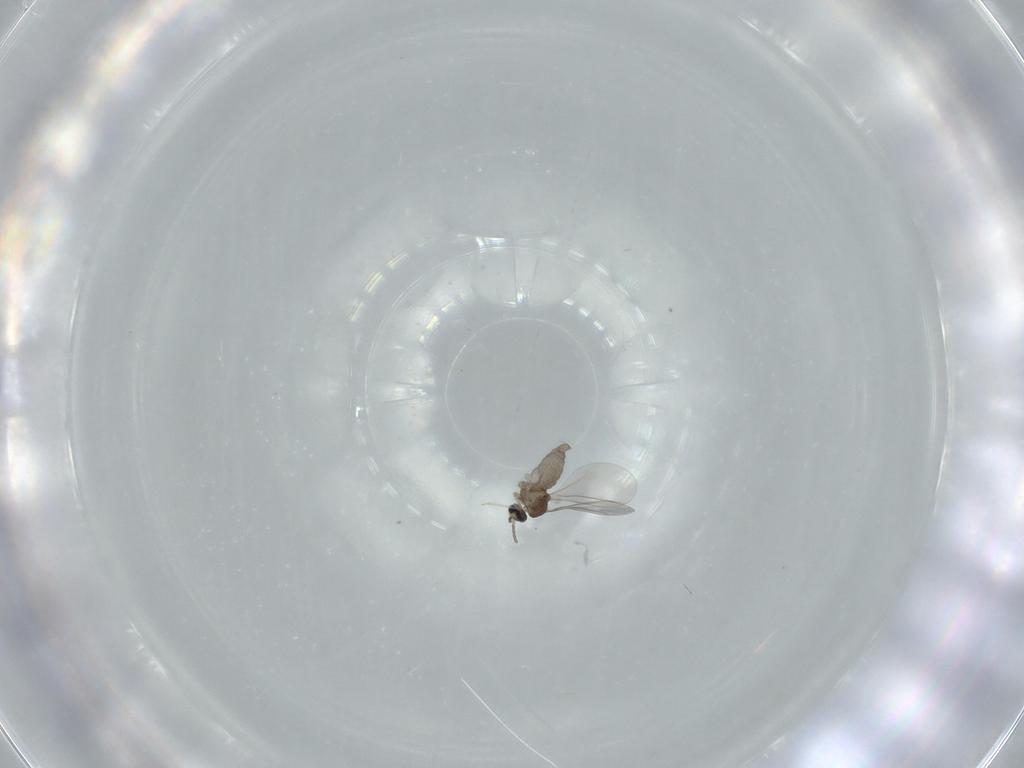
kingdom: Animalia
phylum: Arthropoda
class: Insecta
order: Diptera
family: Cecidomyiidae
